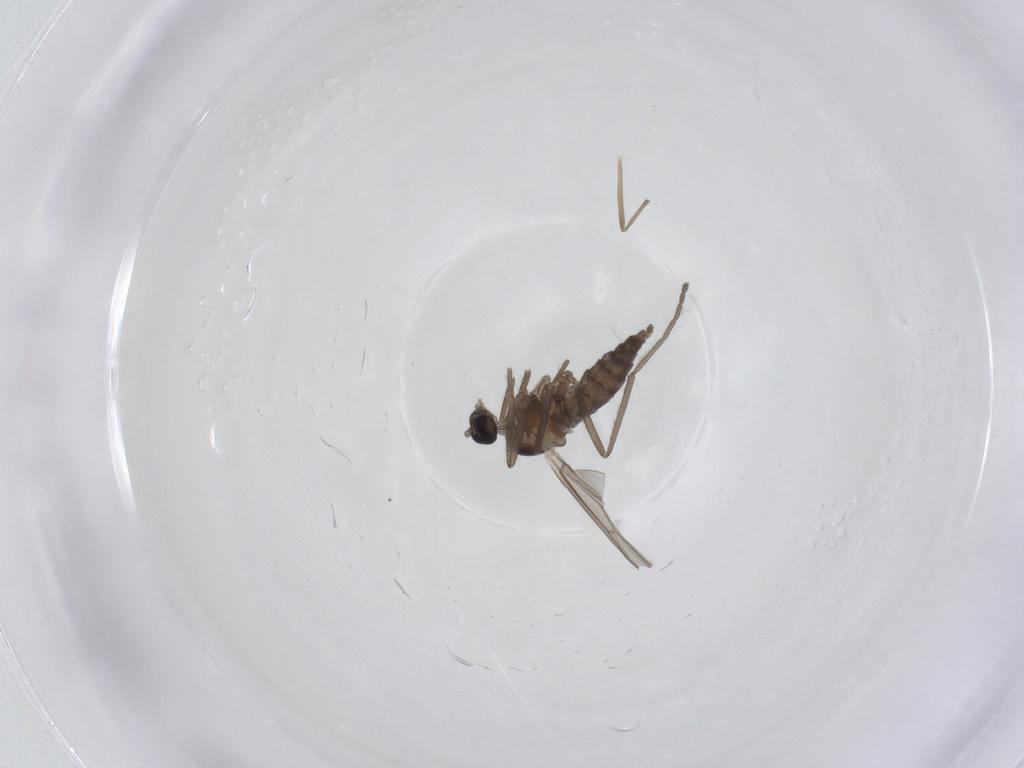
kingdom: Animalia
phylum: Arthropoda
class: Insecta
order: Diptera
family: Cecidomyiidae
